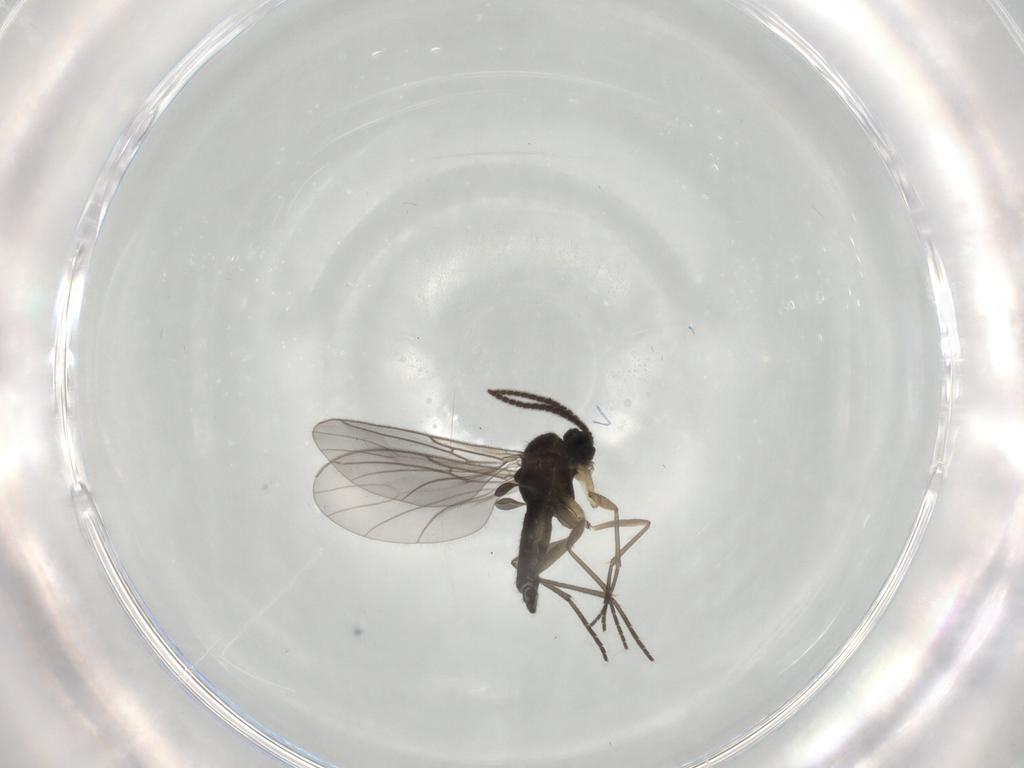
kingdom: Animalia
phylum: Arthropoda
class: Insecta
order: Diptera
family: Sciaridae
